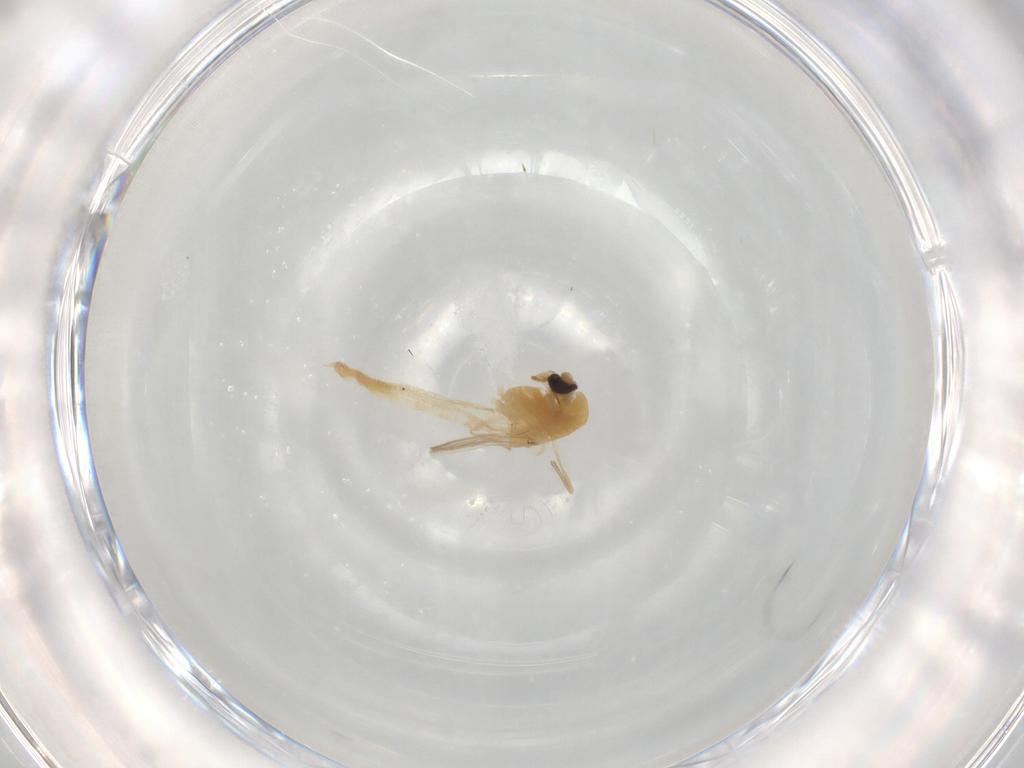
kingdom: Animalia
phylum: Arthropoda
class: Insecta
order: Diptera
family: Chironomidae
